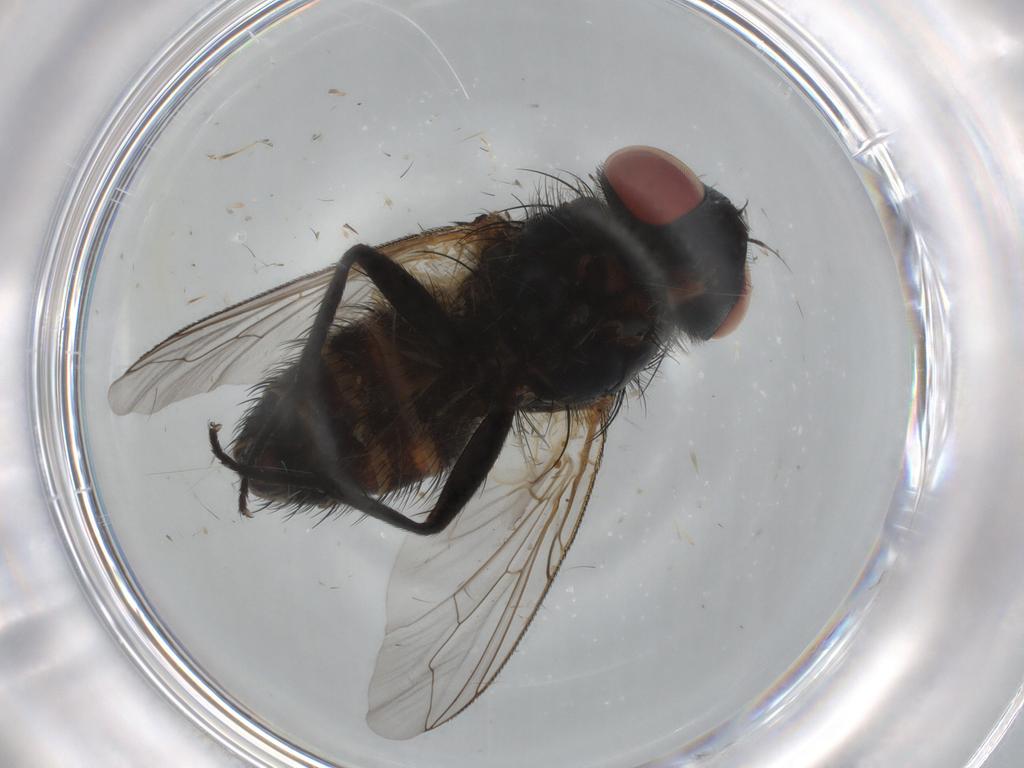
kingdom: Animalia
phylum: Arthropoda
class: Insecta
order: Diptera
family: Sarcophagidae
